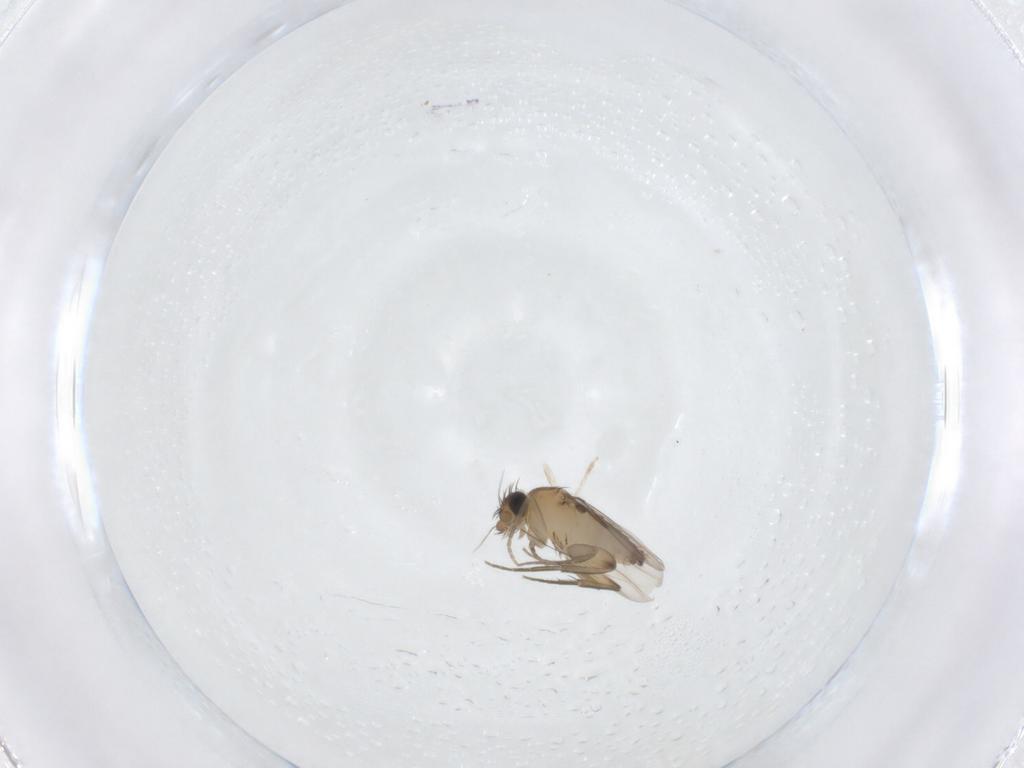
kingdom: Animalia
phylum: Arthropoda
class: Insecta
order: Diptera
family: Phoridae
